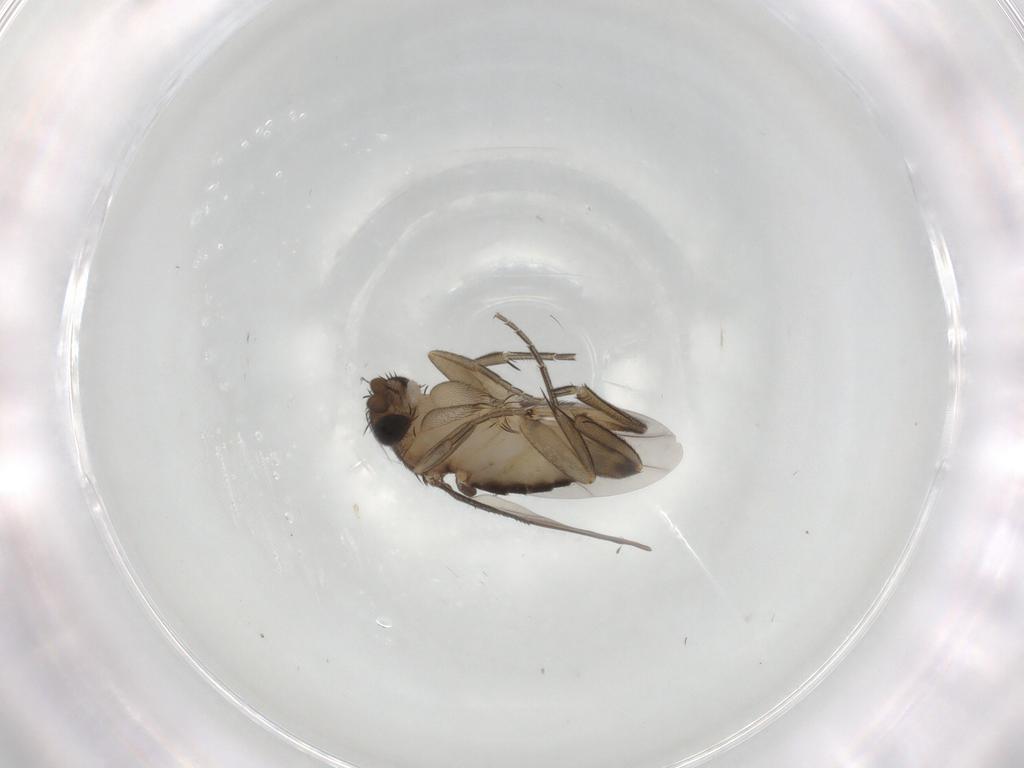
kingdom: Animalia
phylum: Arthropoda
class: Insecta
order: Diptera
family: Phoridae
